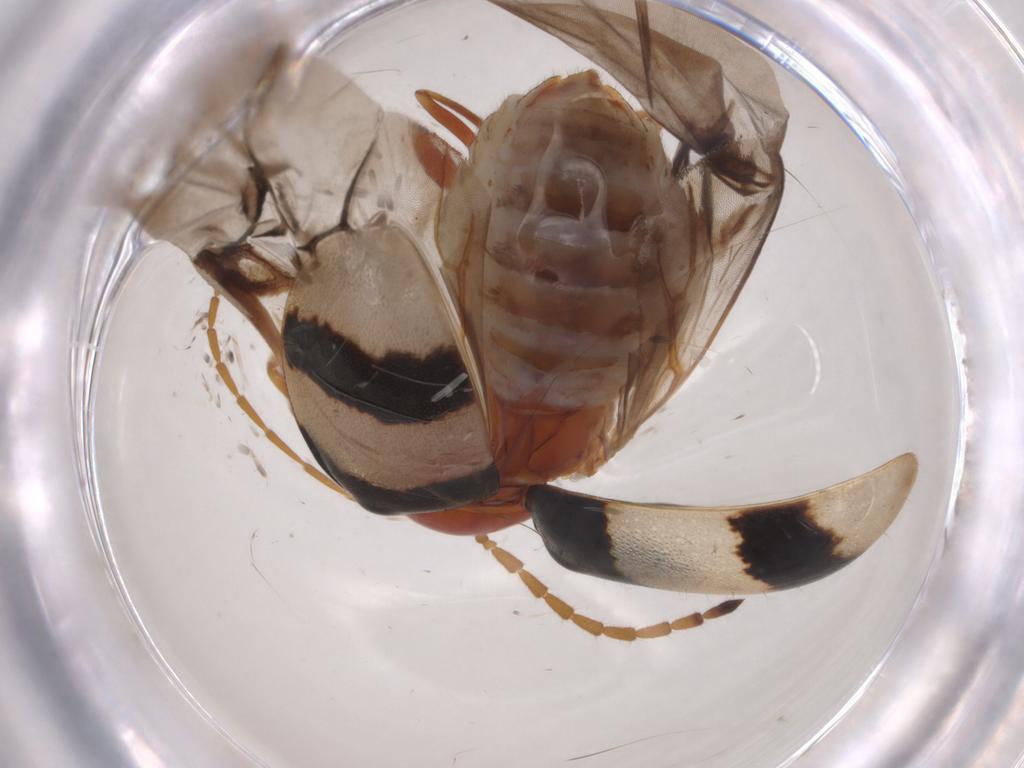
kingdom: Animalia
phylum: Arthropoda
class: Insecta
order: Coleoptera
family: Chrysomelidae
